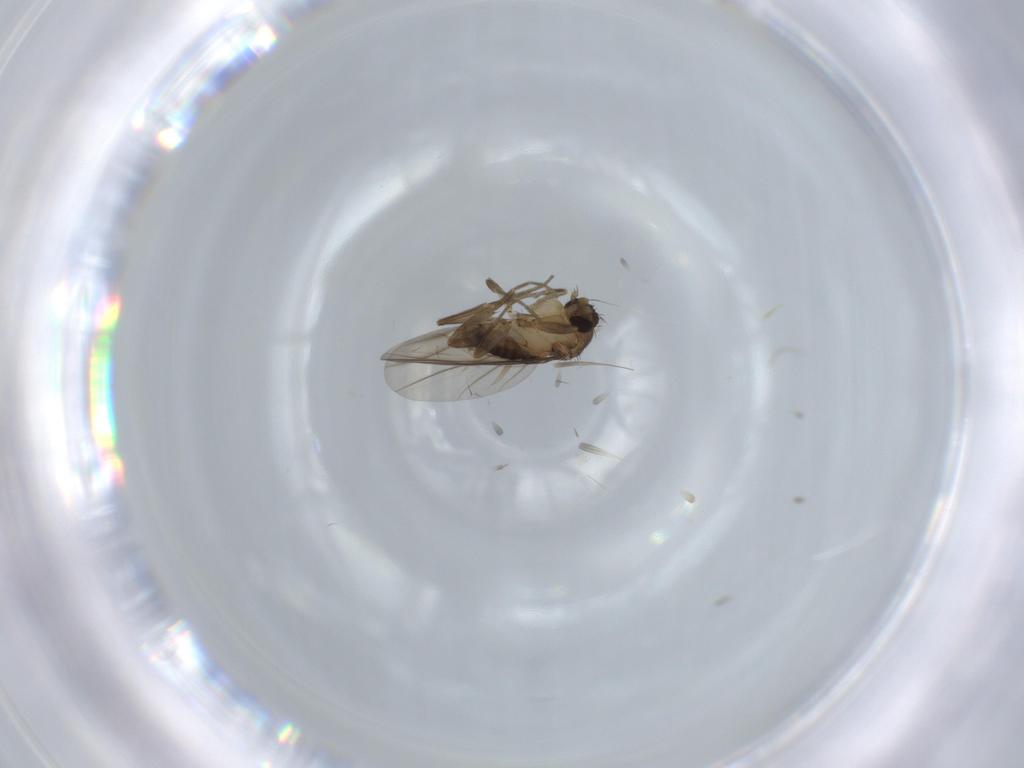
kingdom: Animalia
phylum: Arthropoda
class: Insecta
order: Diptera
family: Phoridae
